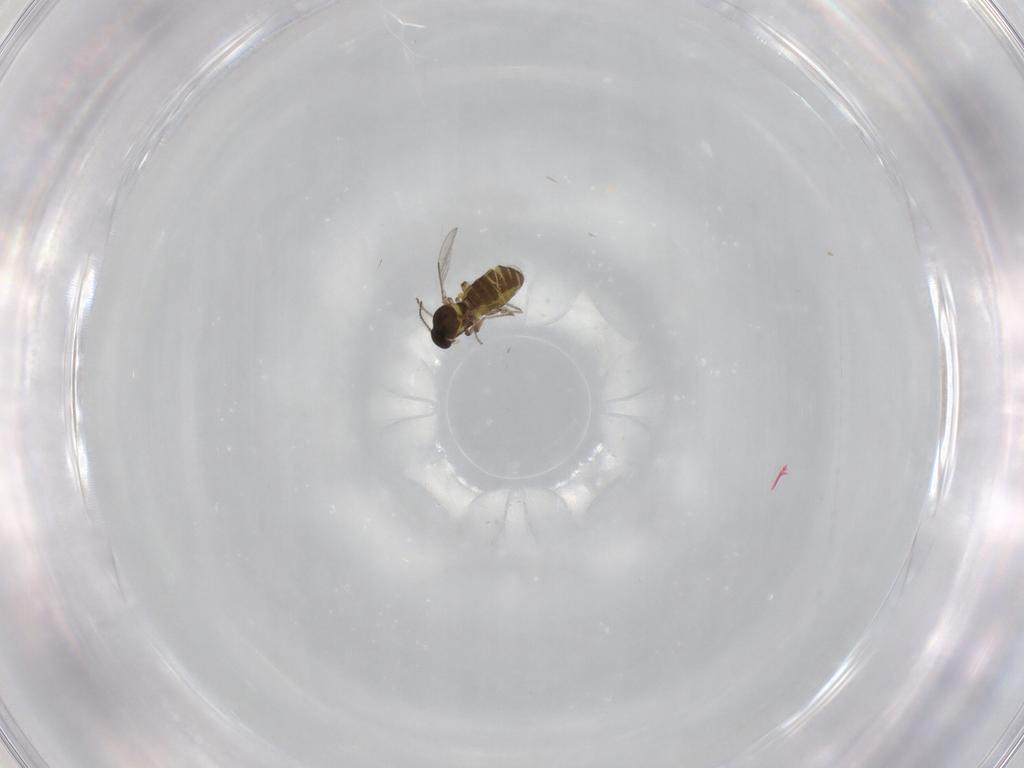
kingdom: Animalia
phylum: Arthropoda
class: Insecta
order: Diptera
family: Ceratopogonidae
